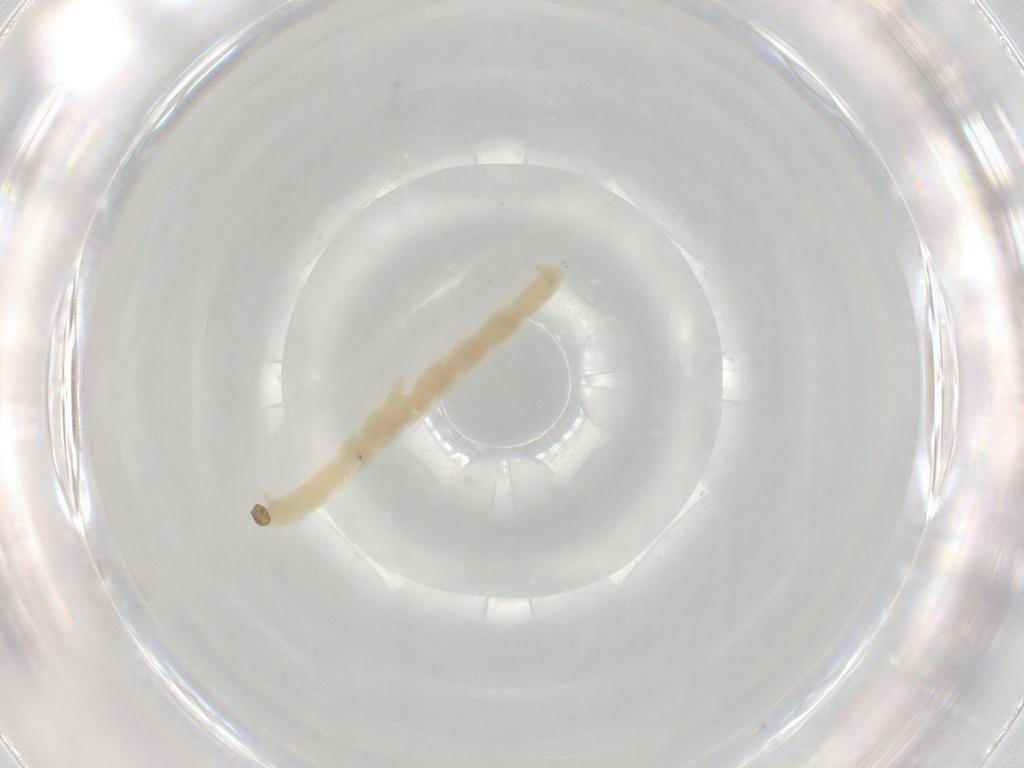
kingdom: Animalia
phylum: Arthropoda
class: Insecta
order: Diptera
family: Chironomidae
